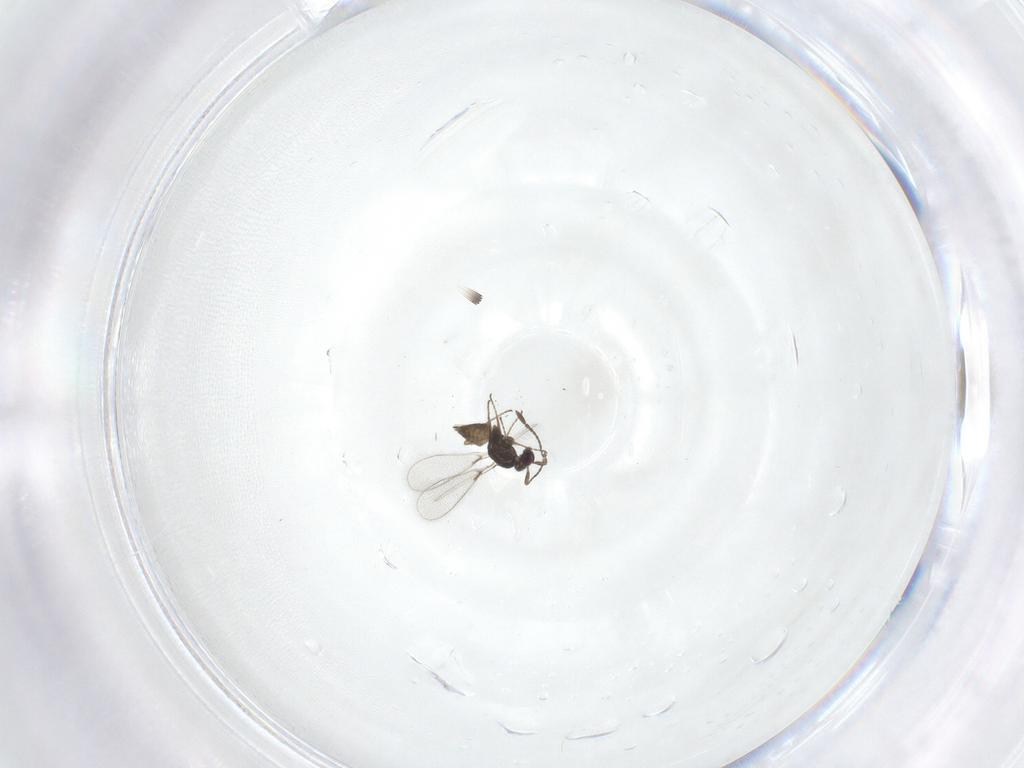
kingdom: Animalia
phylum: Arthropoda
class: Insecta
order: Hymenoptera
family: Mymaridae
